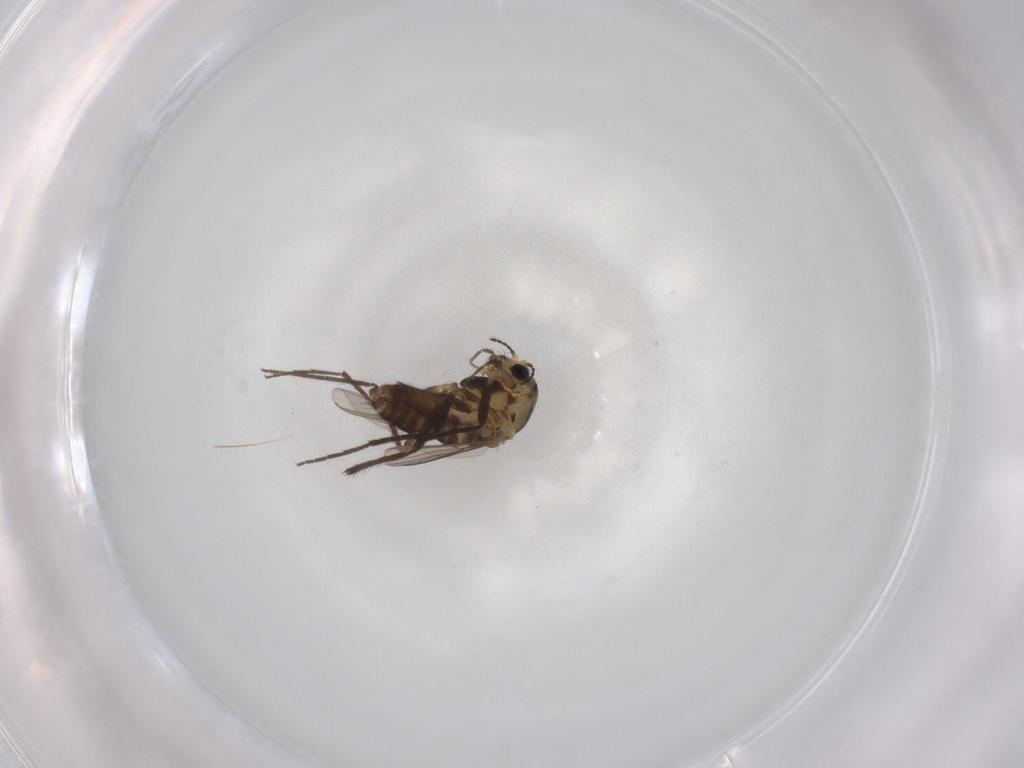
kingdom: Animalia
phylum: Arthropoda
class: Insecta
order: Diptera
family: Chironomidae
